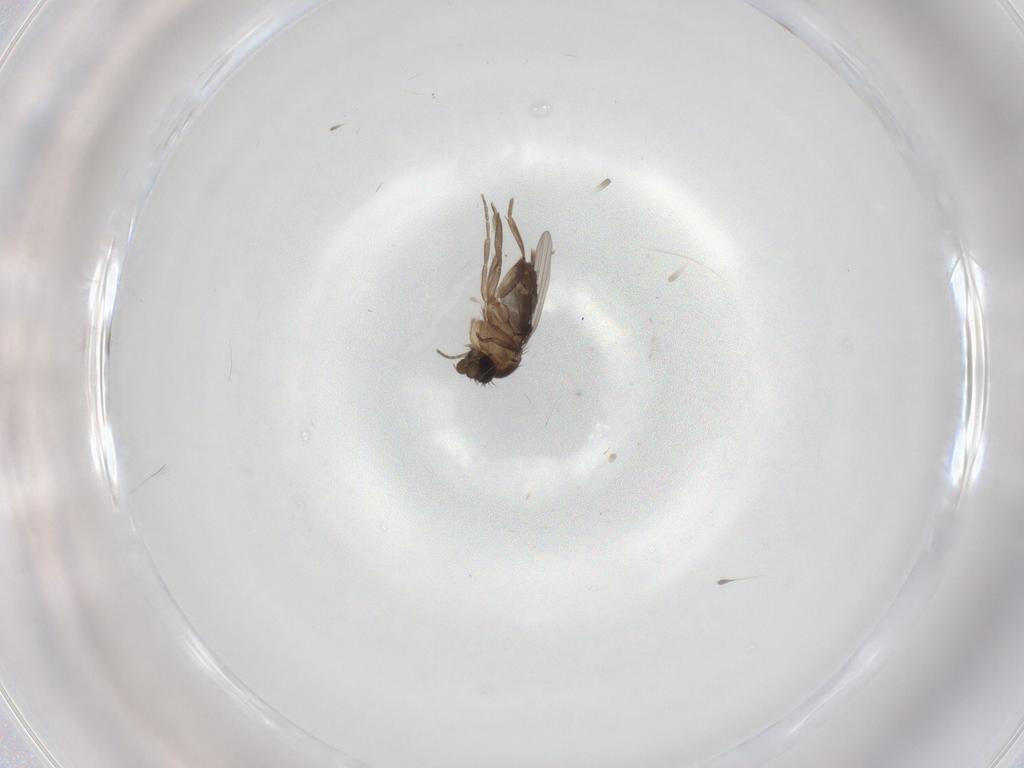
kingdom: Animalia
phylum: Arthropoda
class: Insecta
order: Diptera
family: Phoridae
